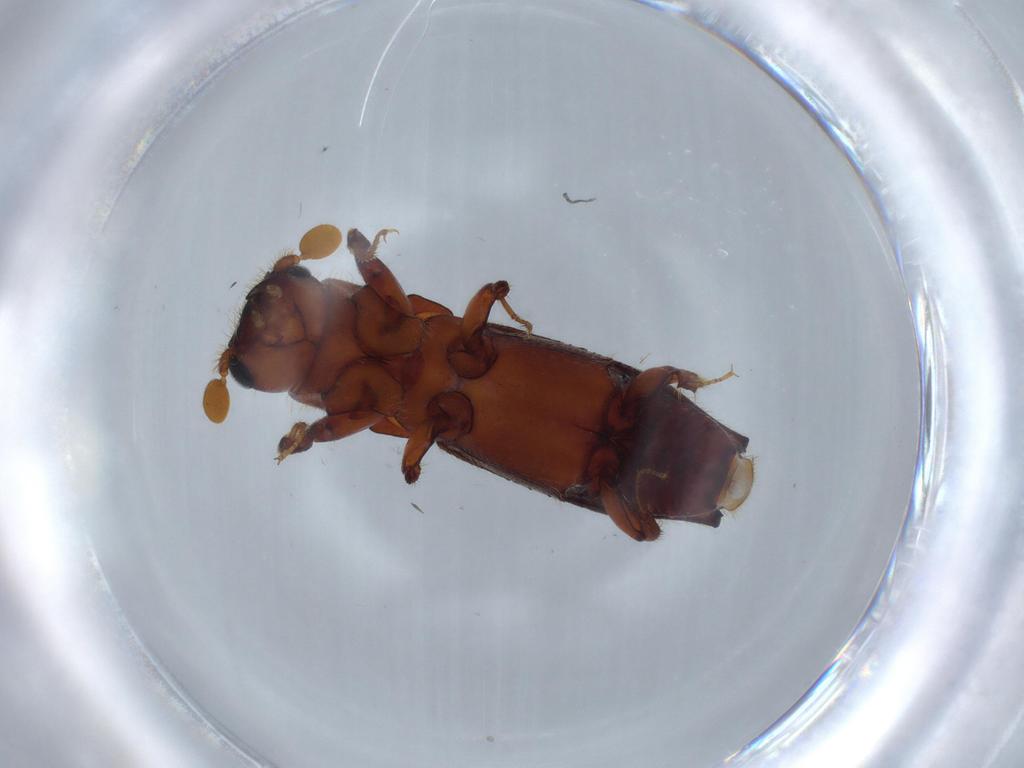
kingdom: Animalia
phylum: Arthropoda
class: Insecta
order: Coleoptera
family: Curculionidae
